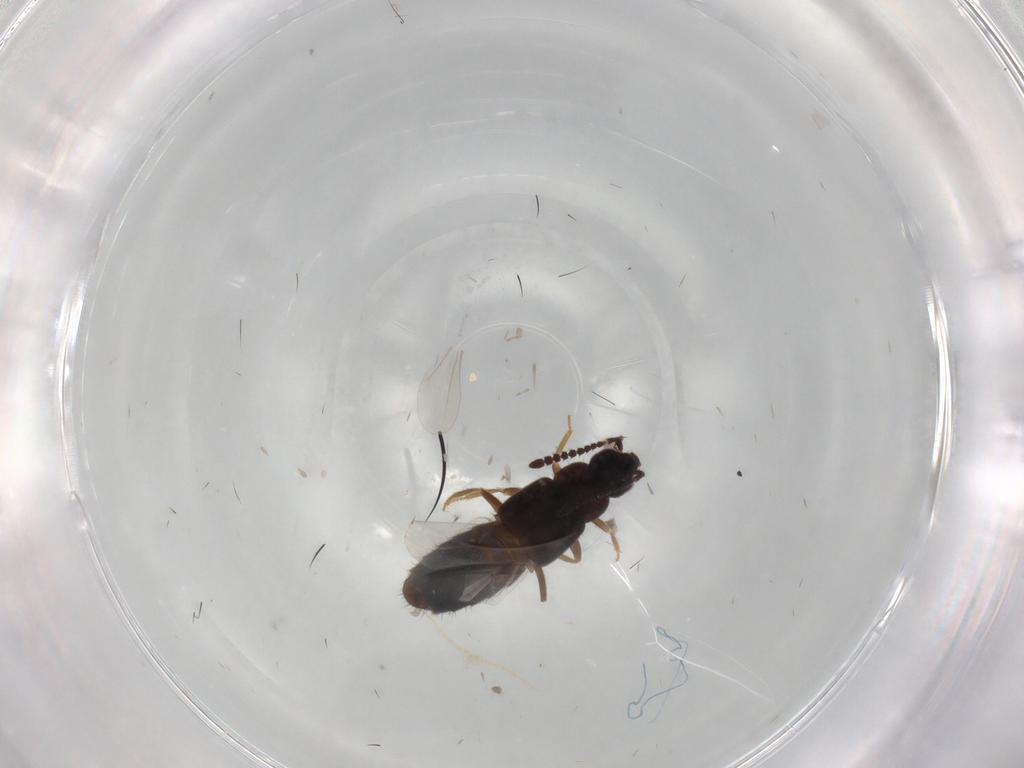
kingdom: Animalia
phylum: Arthropoda
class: Insecta
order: Coleoptera
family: Staphylinidae
